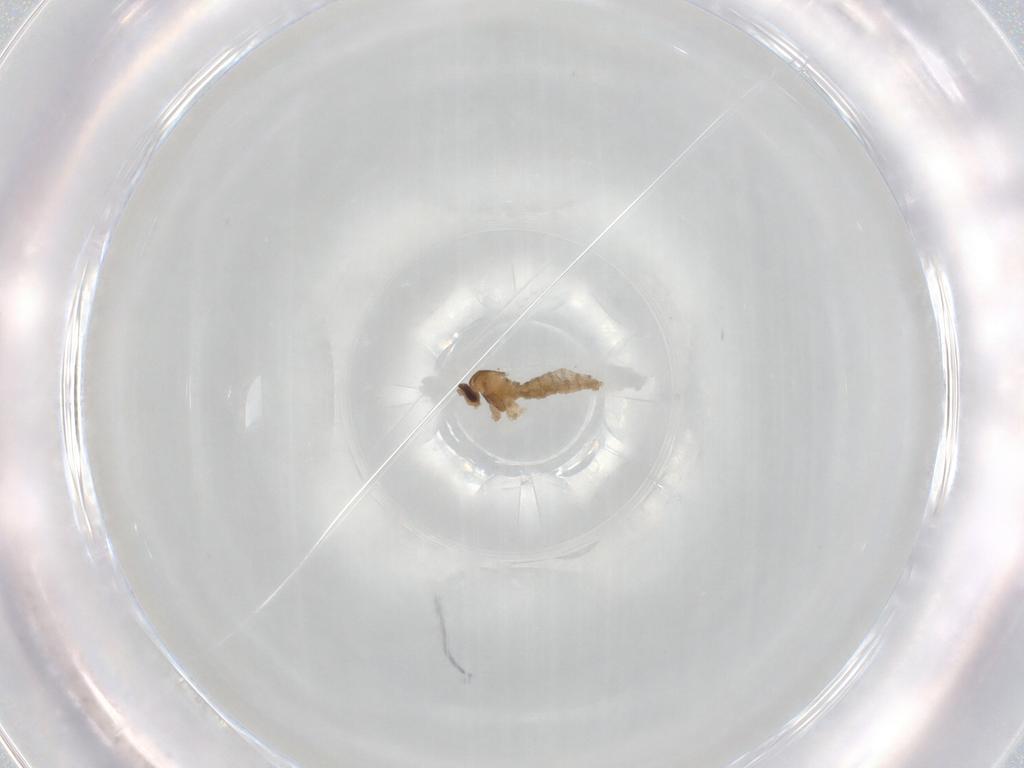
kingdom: Animalia
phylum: Arthropoda
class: Insecta
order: Diptera
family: Cecidomyiidae
